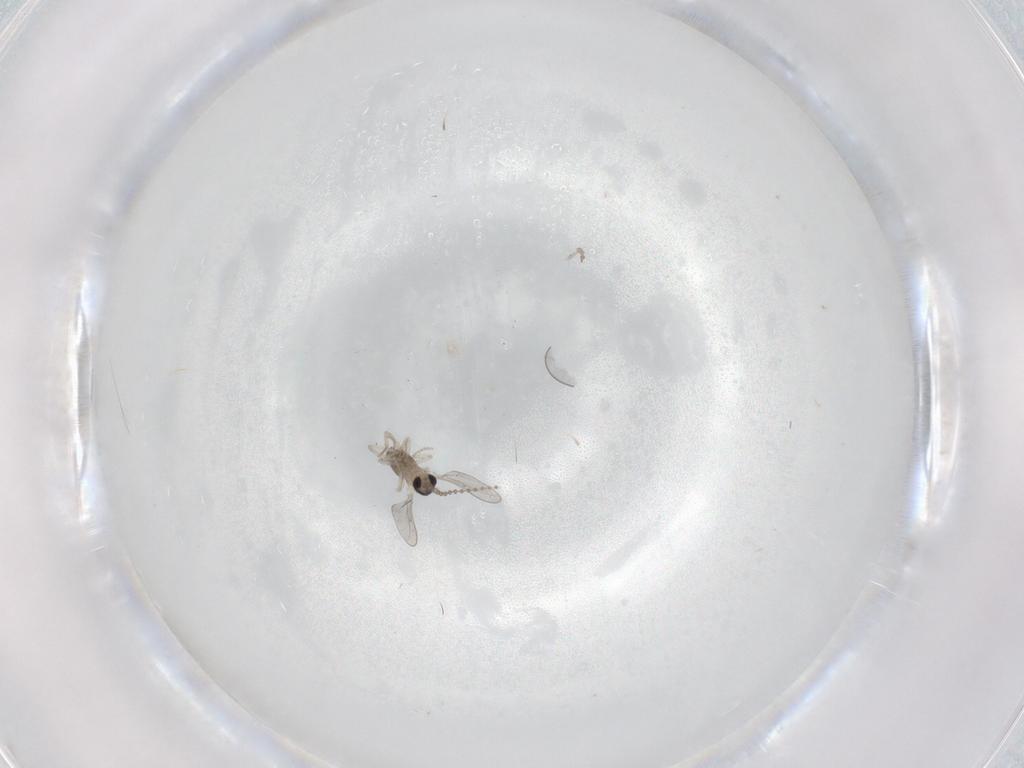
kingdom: Animalia
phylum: Arthropoda
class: Insecta
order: Diptera
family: Cecidomyiidae
